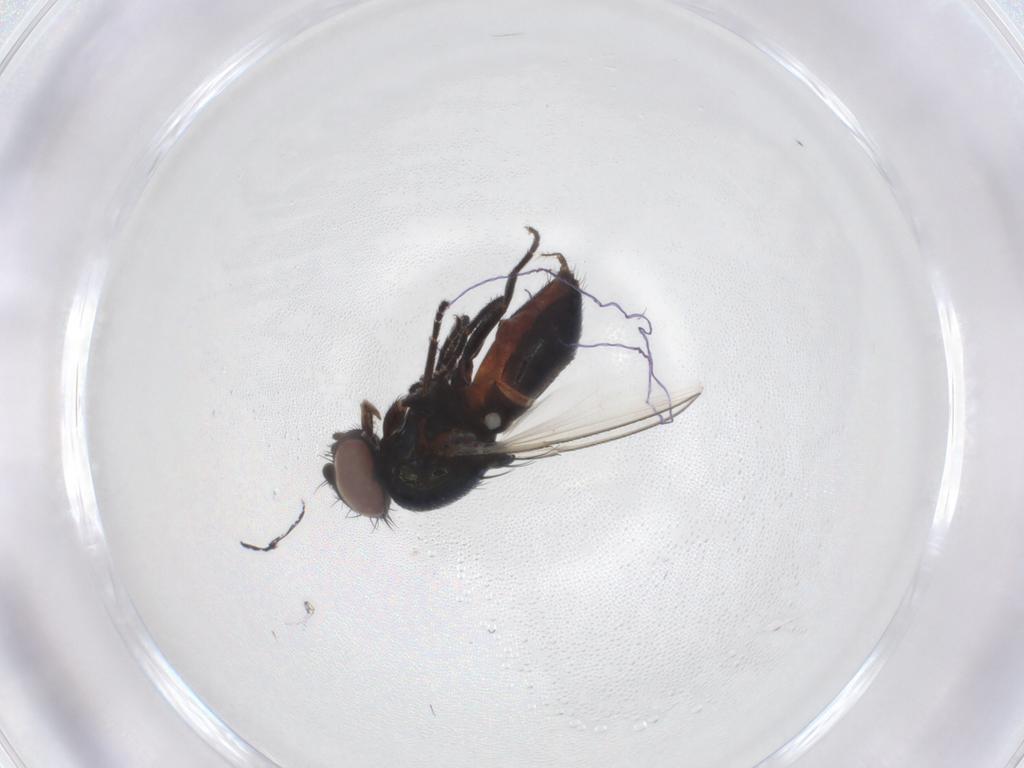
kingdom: Animalia
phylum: Arthropoda
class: Insecta
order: Diptera
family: Milichiidae
